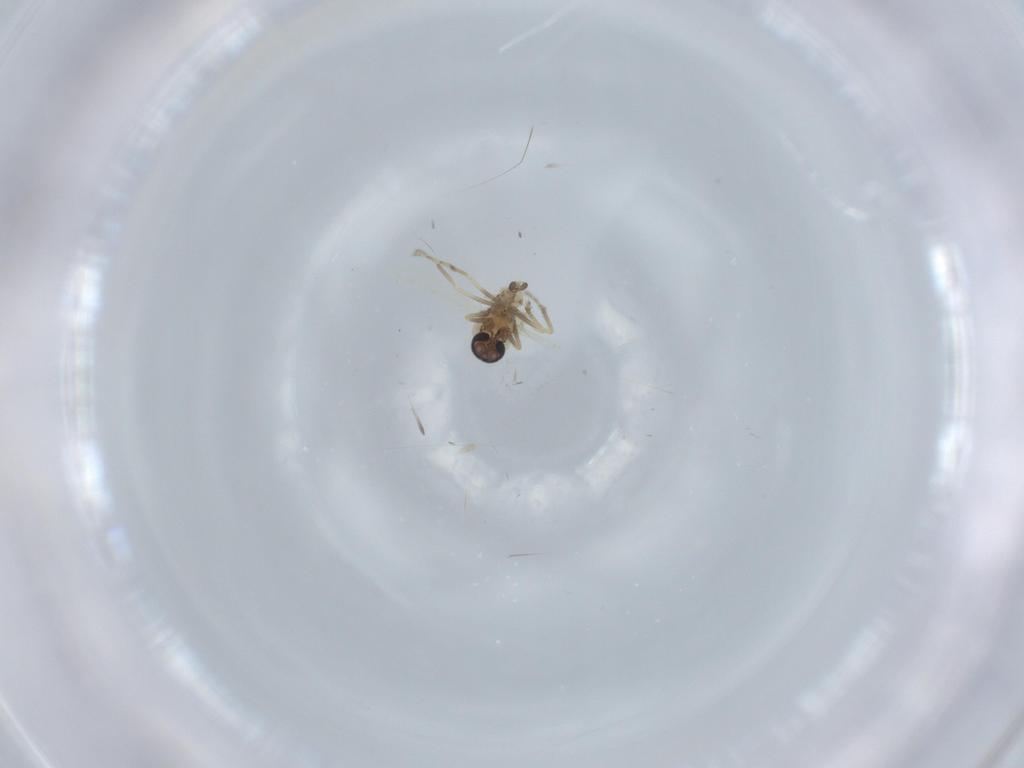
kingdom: Animalia
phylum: Arthropoda
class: Insecta
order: Diptera
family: Ceratopogonidae
